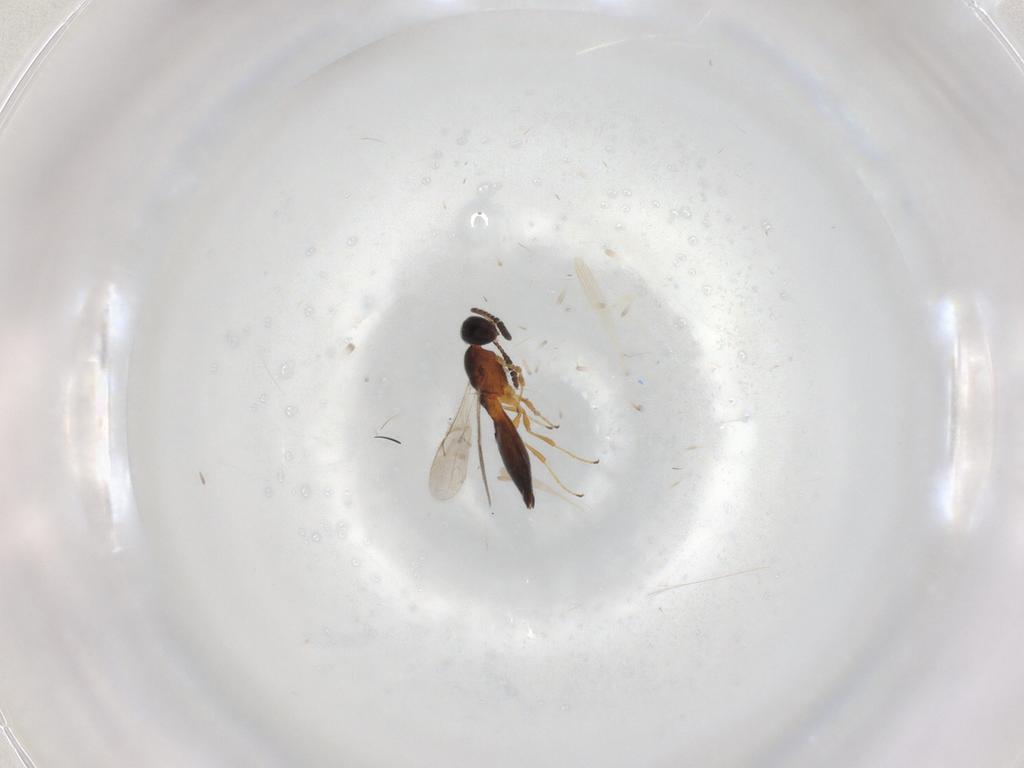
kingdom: Animalia
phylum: Arthropoda
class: Insecta
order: Hymenoptera
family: Scelionidae
